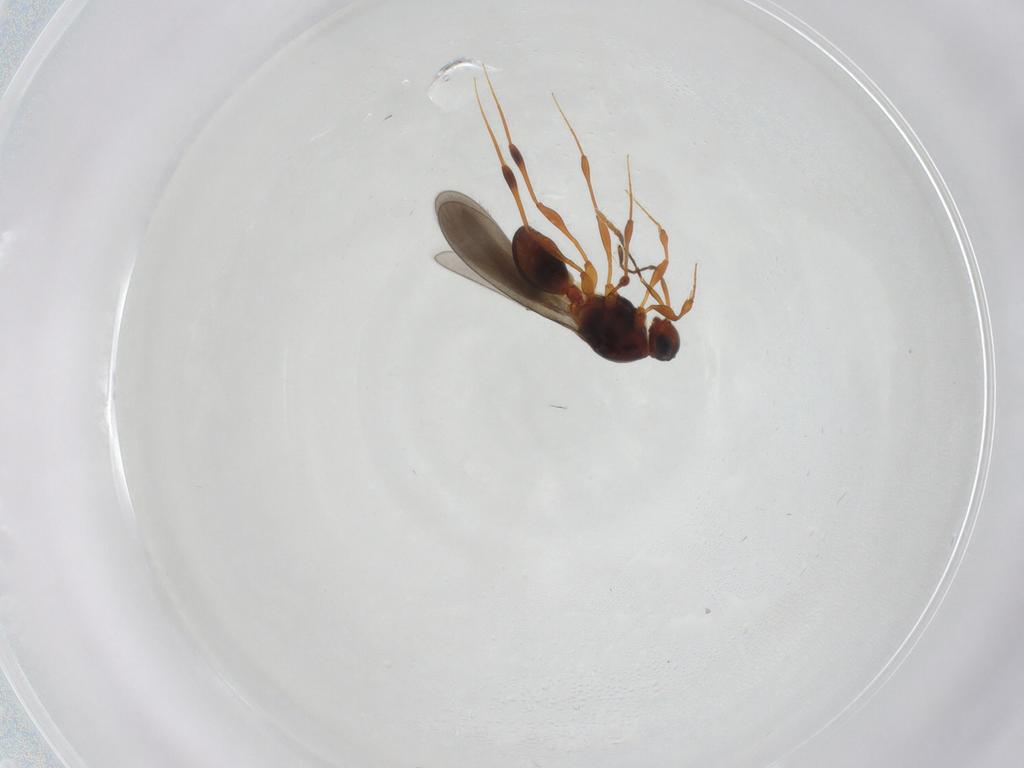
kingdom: Animalia
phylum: Arthropoda
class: Insecta
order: Hymenoptera
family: Platygastridae
